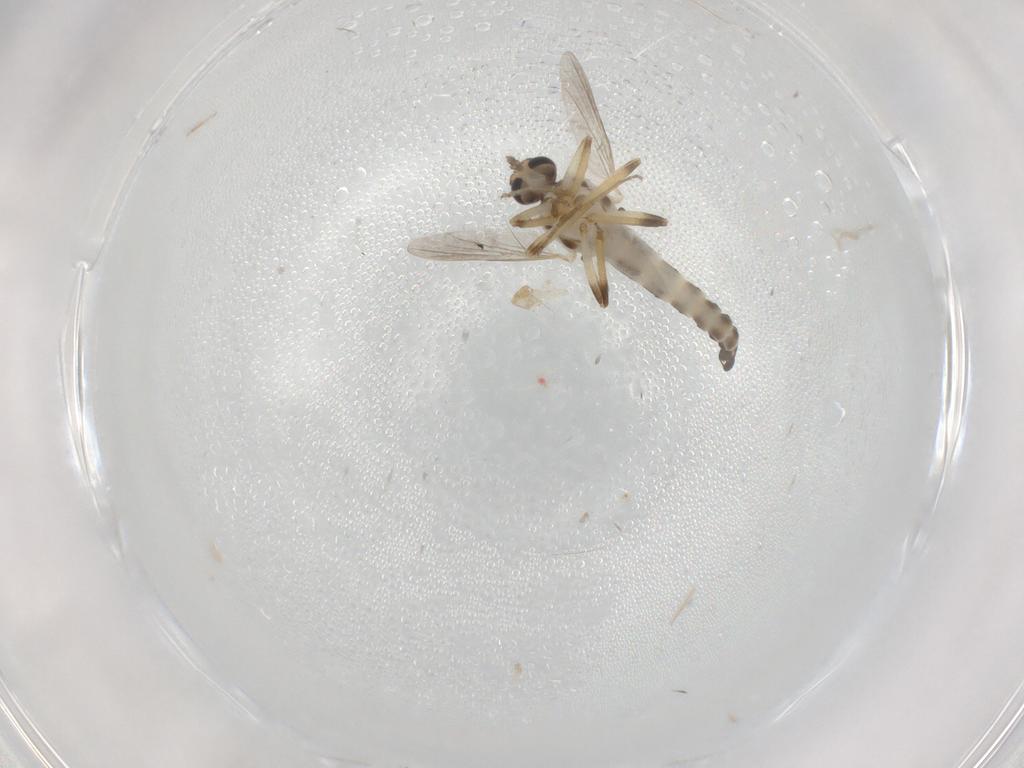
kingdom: Animalia
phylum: Arthropoda
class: Insecta
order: Diptera
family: Ceratopogonidae
